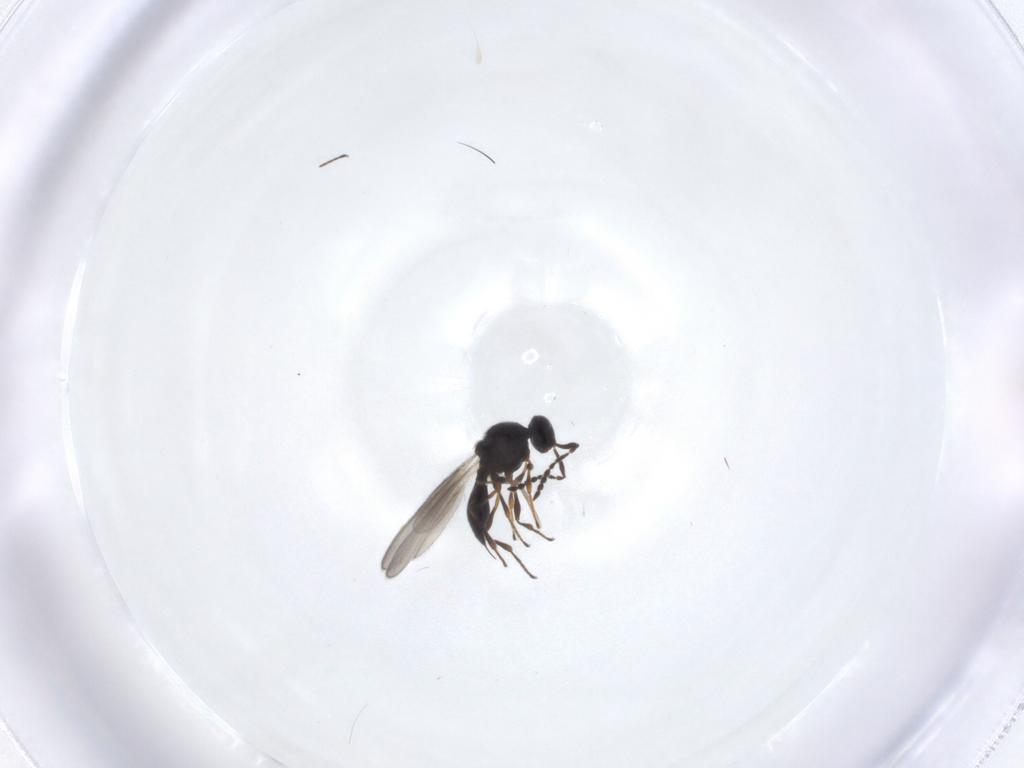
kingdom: Animalia
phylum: Arthropoda
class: Insecta
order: Hymenoptera
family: Platygastridae
